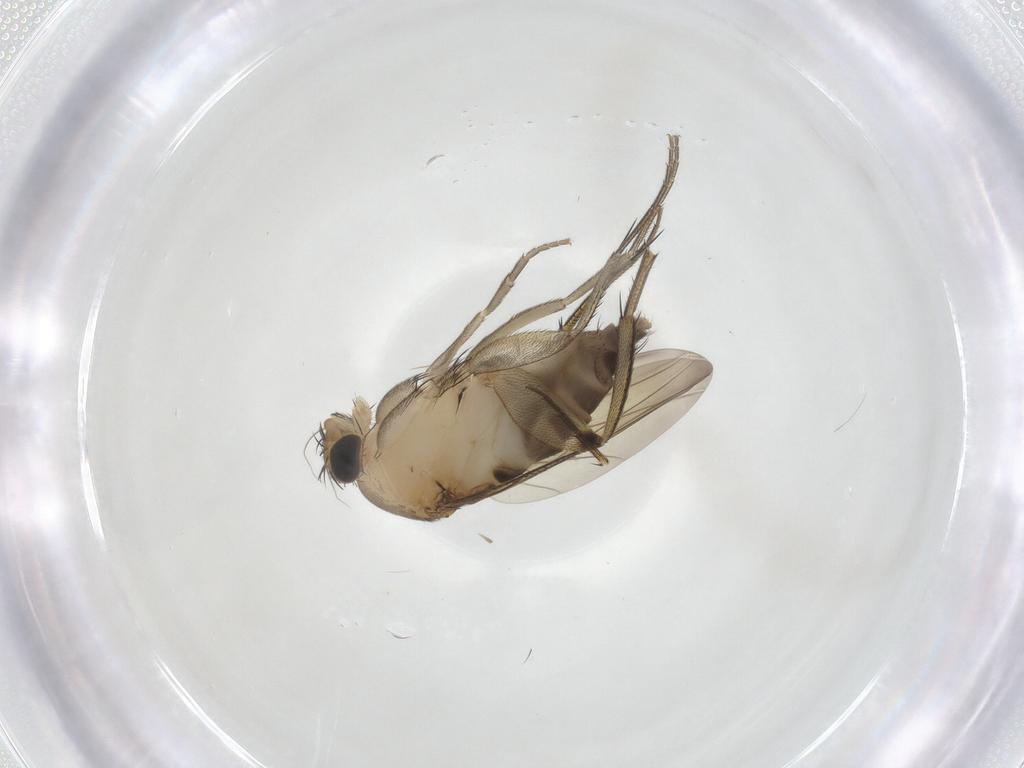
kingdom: Animalia
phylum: Arthropoda
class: Insecta
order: Diptera
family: Phoridae
